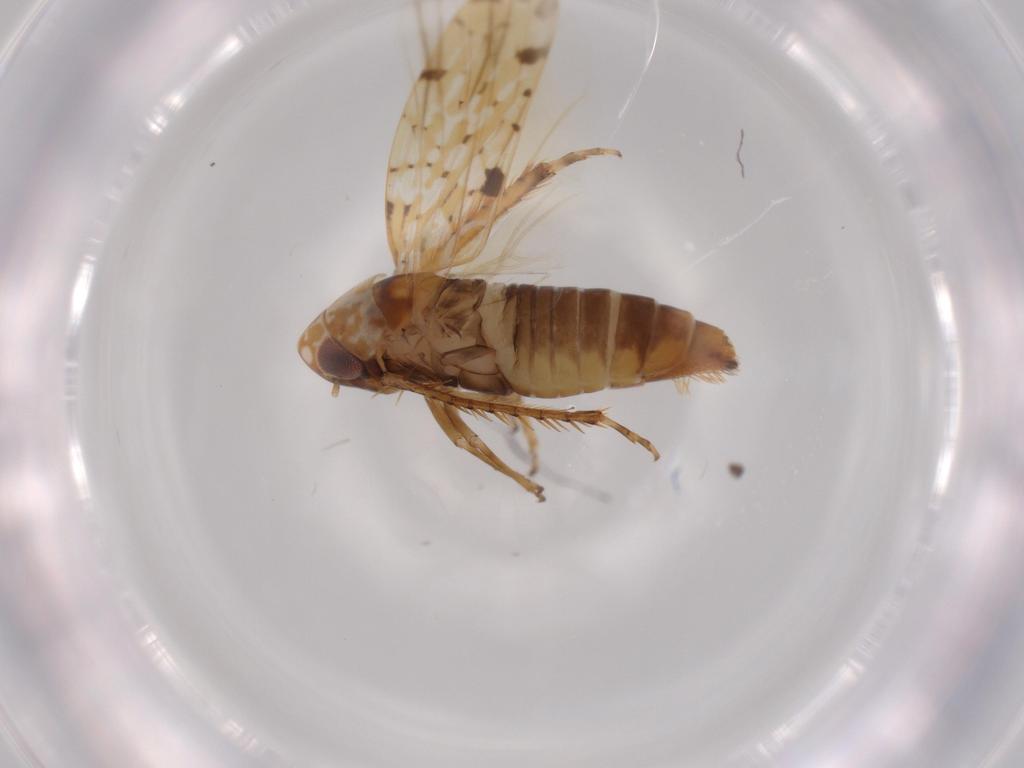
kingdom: Animalia
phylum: Arthropoda
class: Insecta
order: Hemiptera
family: Cicadellidae
